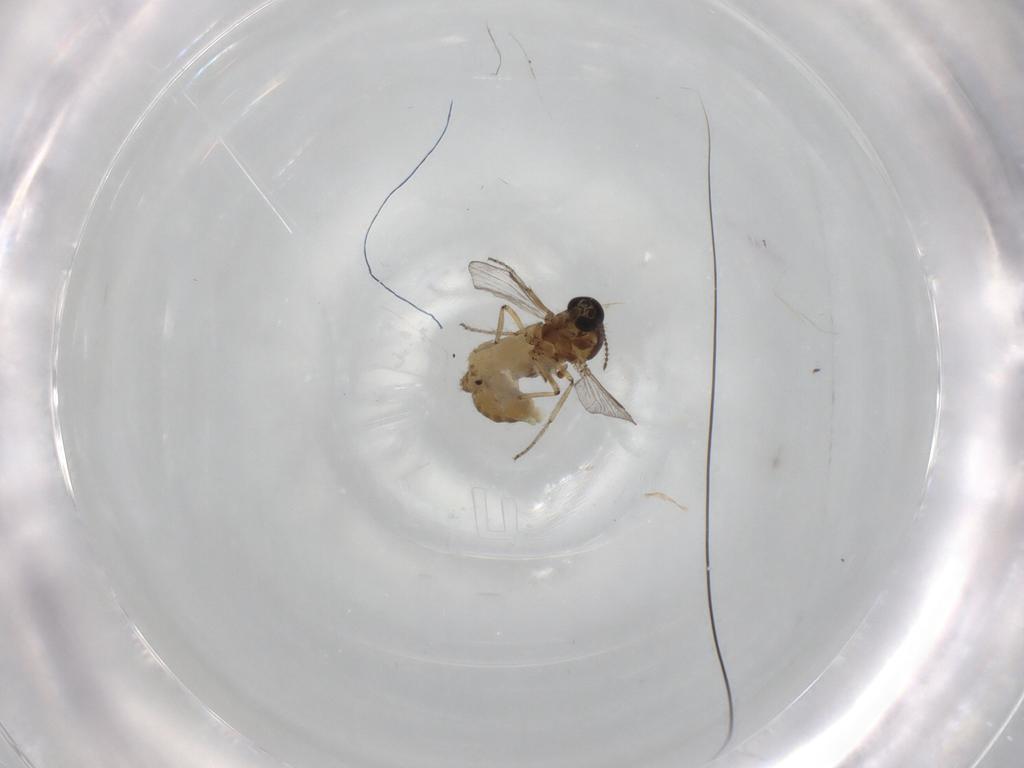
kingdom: Animalia
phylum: Arthropoda
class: Insecta
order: Diptera
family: Ceratopogonidae
